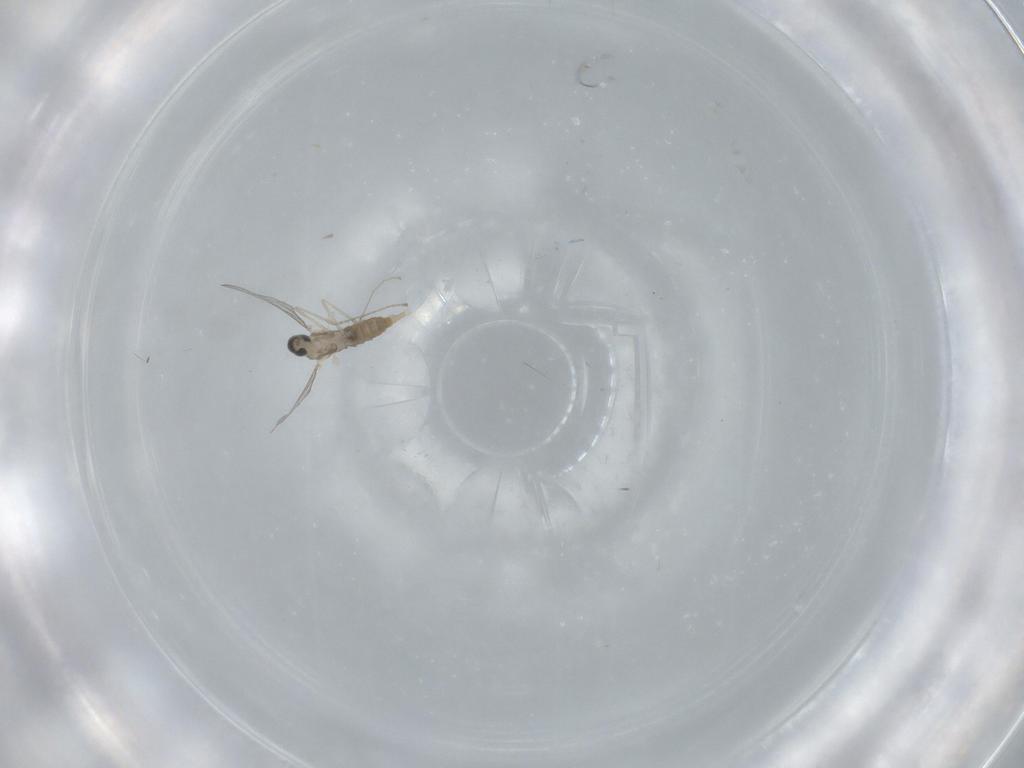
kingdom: Animalia
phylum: Arthropoda
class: Insecta
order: Diptera
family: Cecidomyiidae
